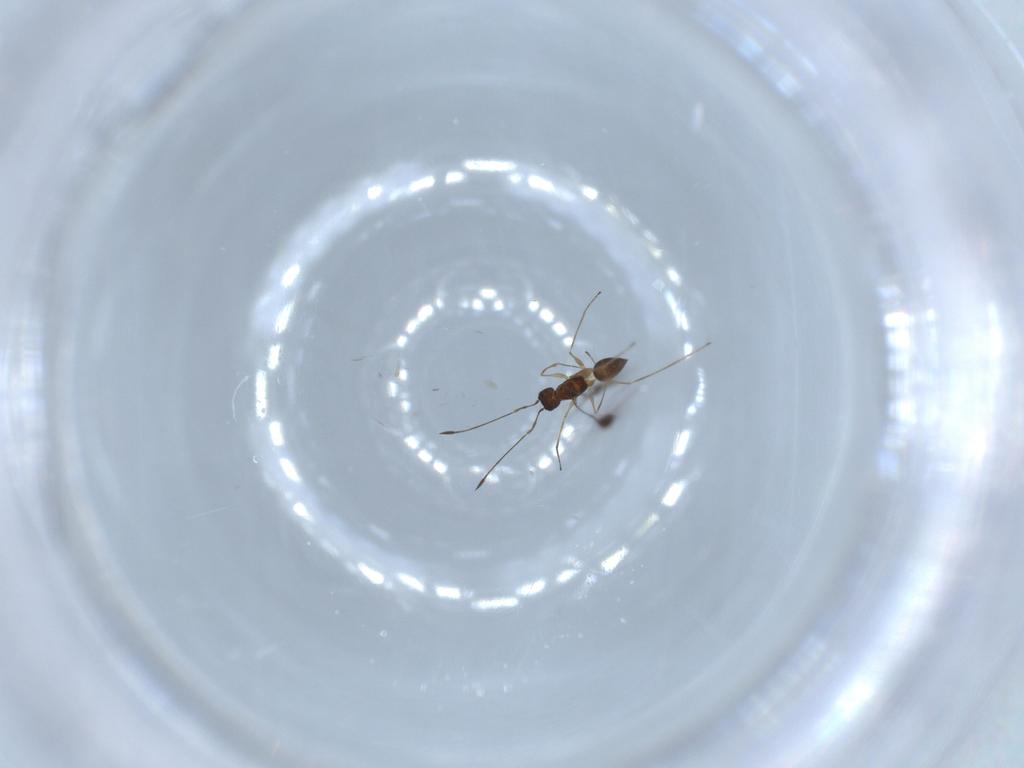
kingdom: Animalia
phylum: Arthropoda
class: Insecta
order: Hymenoptera
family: Mymaridae
